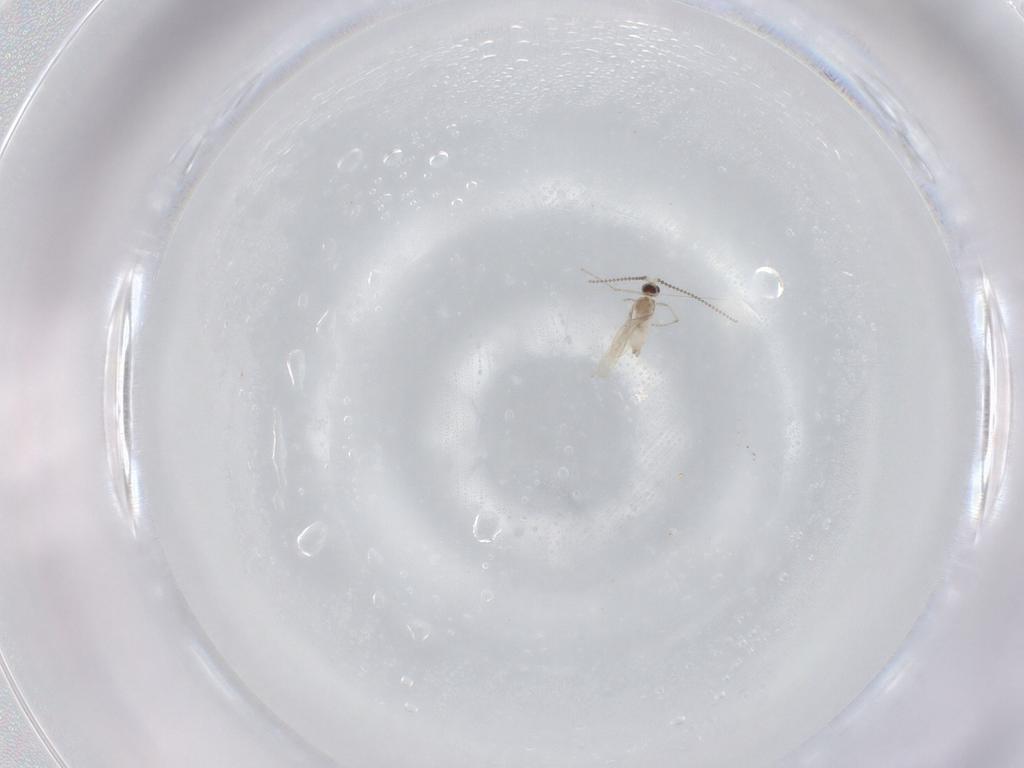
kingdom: Animalia
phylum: Arthropoda
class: Insecta
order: Diptera
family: Cecidomyiidae
